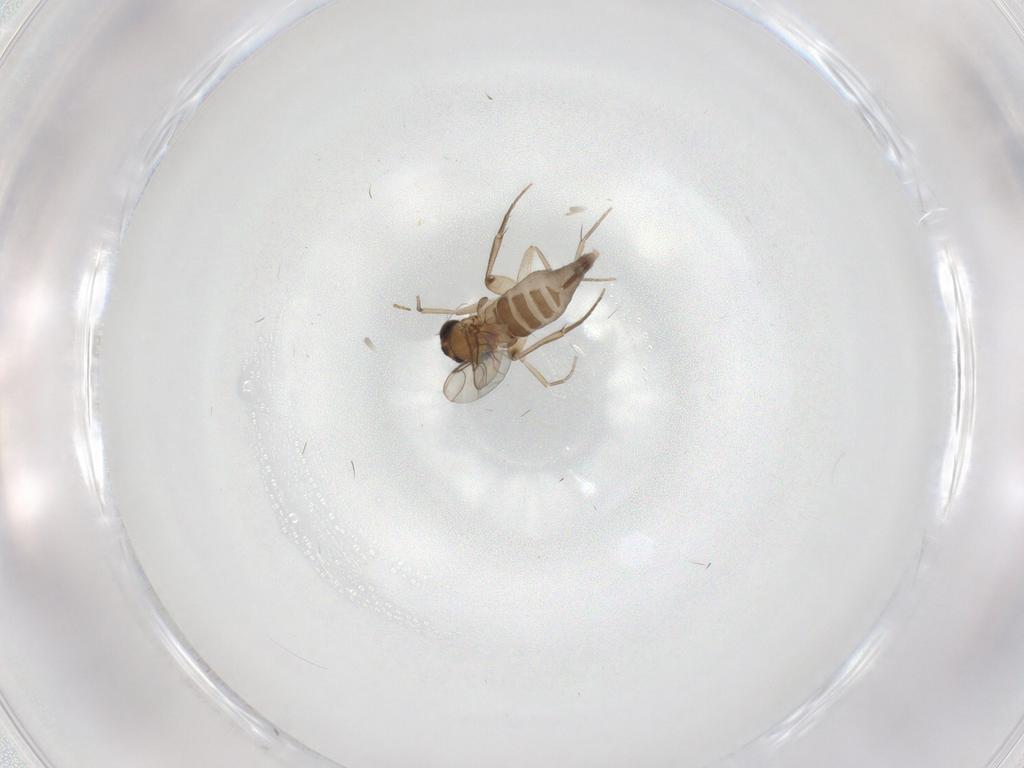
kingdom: Animalia
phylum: Arthropoda
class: Insecta
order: Diptera
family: Phoridae
